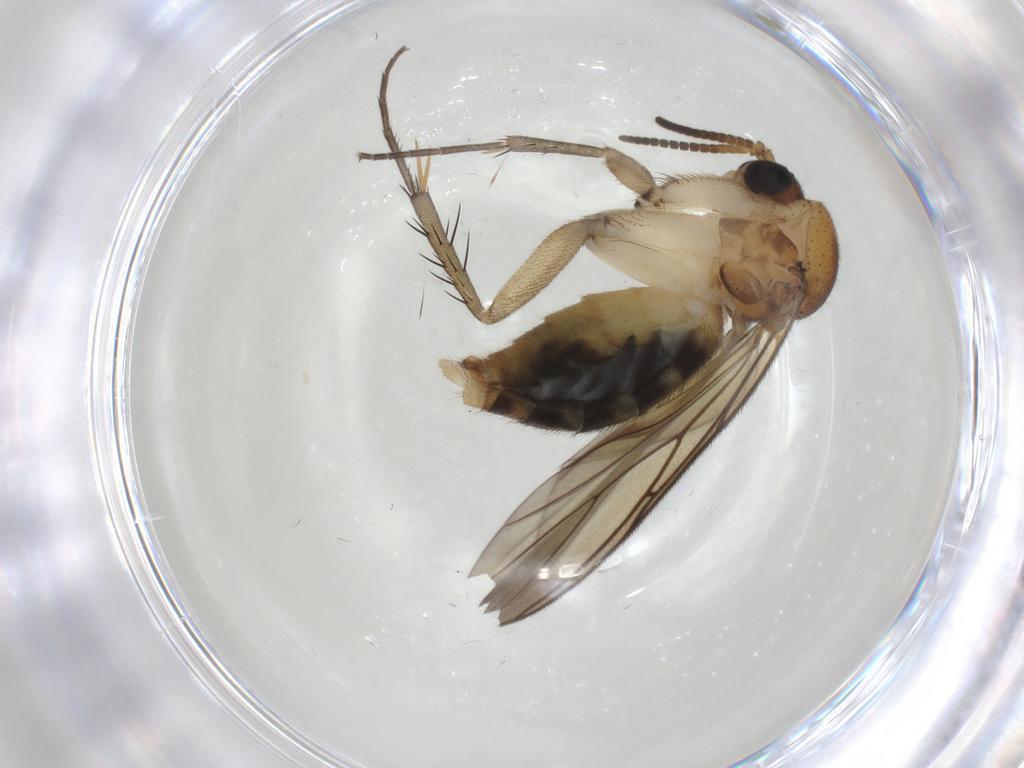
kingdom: Animalia
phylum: Arthropoda
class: Insecta
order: Diptera
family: Mycetophilidae
